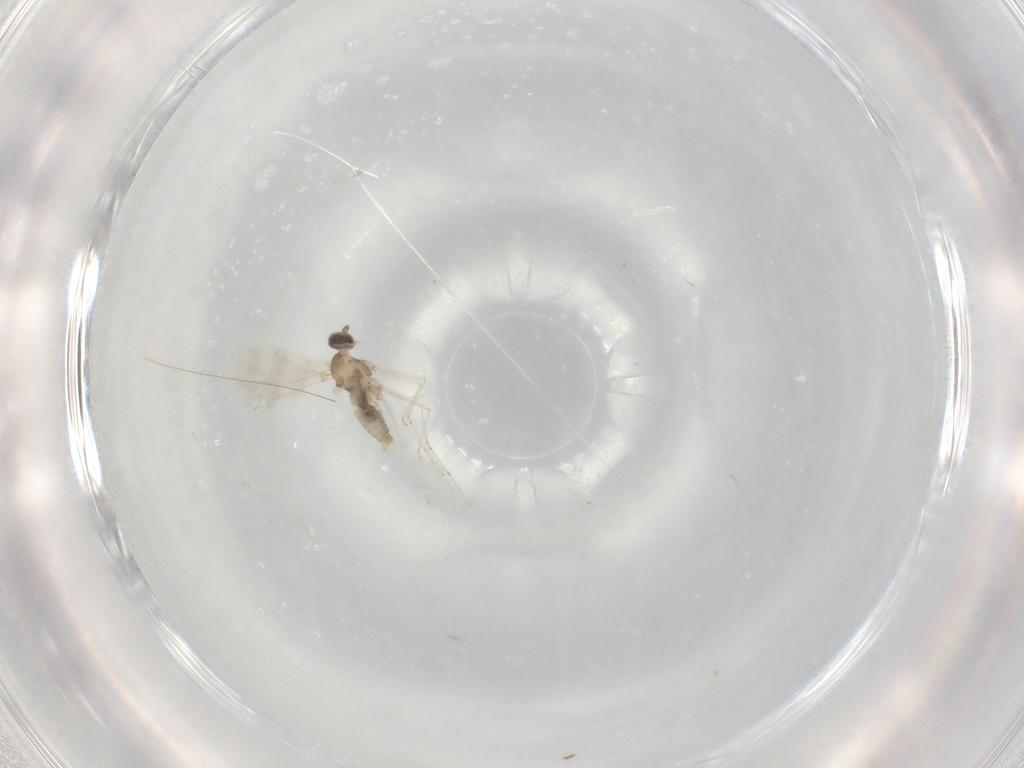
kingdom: Animalia
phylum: Arthropoda
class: Insecta
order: Diptera
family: Cecidomyiidae
